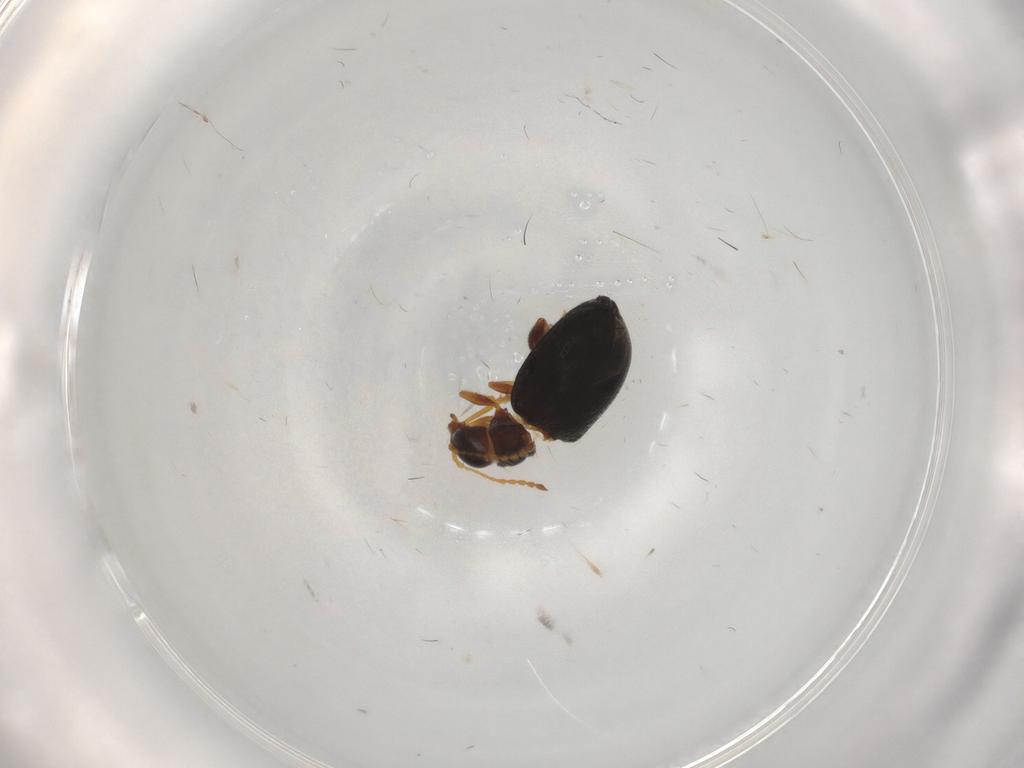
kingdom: Animalia
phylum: Arthropoda
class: Insecta
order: Coleoptera
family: Chrysomelidae
